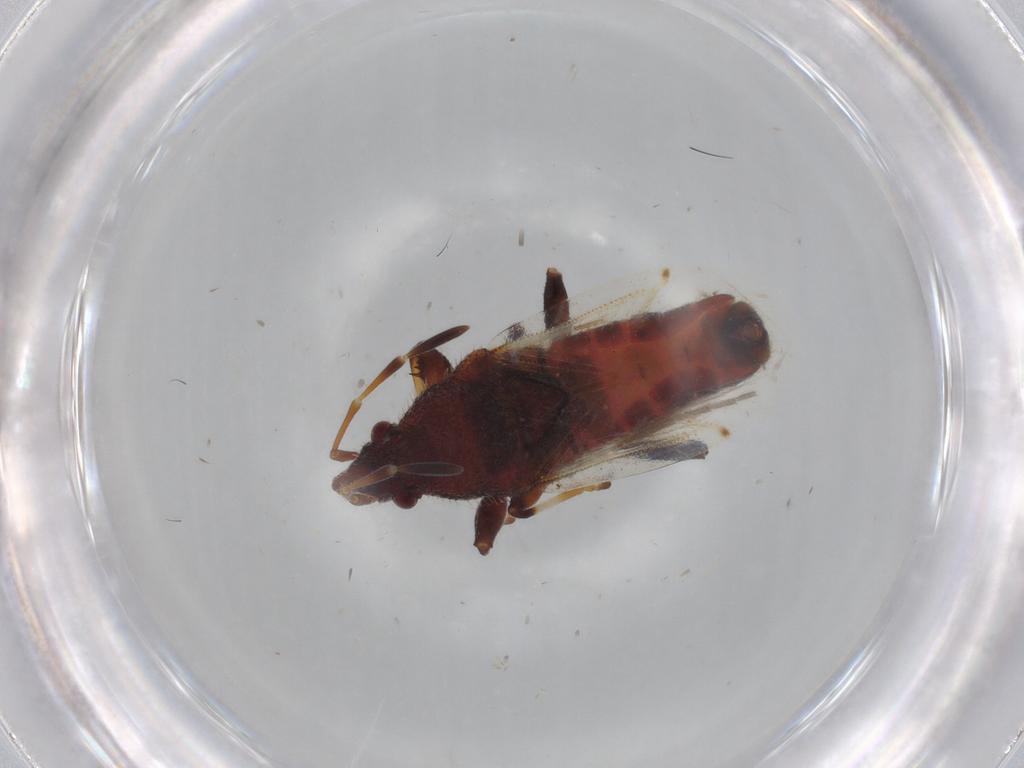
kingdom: Animalia
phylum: Arthropoda
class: Insecta
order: Hemiptera
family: Oxycarenidae
